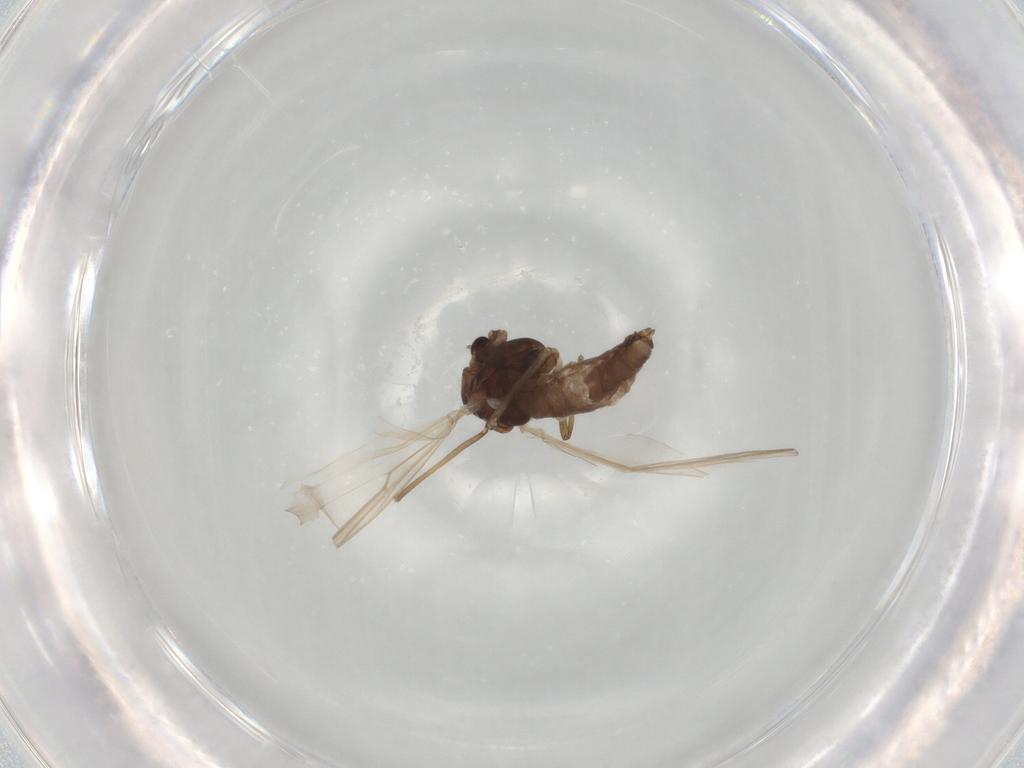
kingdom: Animalia
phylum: Arthropoda
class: Insecta
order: Diptera
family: Chironomidae
